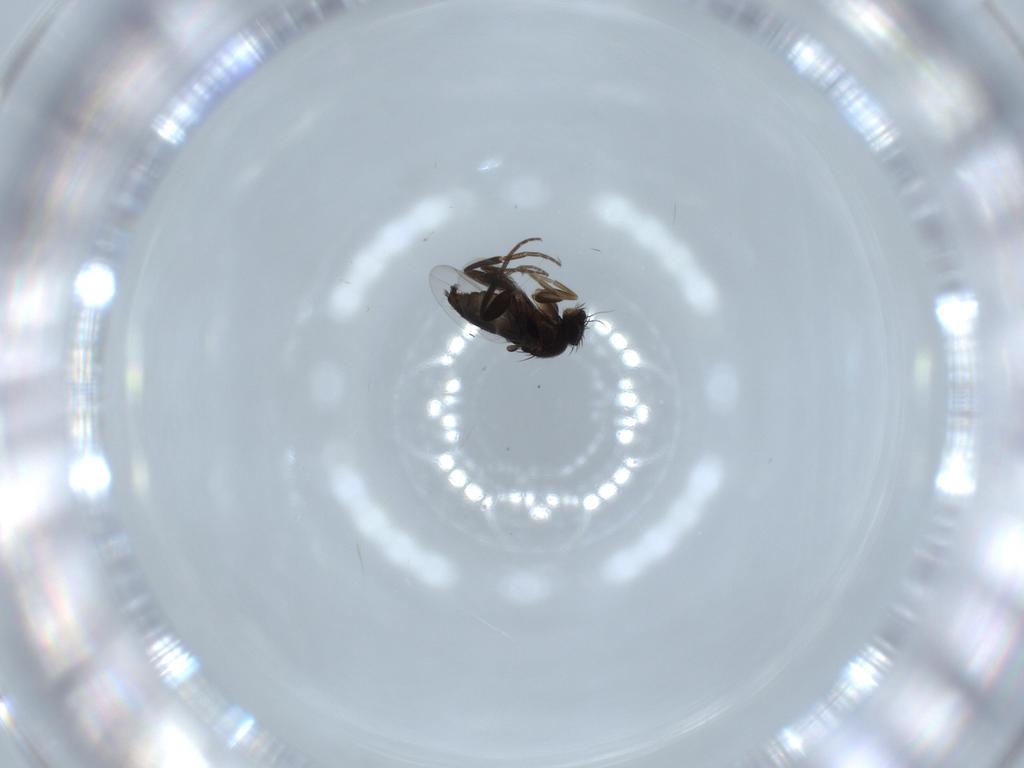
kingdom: Animalia
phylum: Arthropoda
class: Insecta
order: Diptera
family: Phoridae
